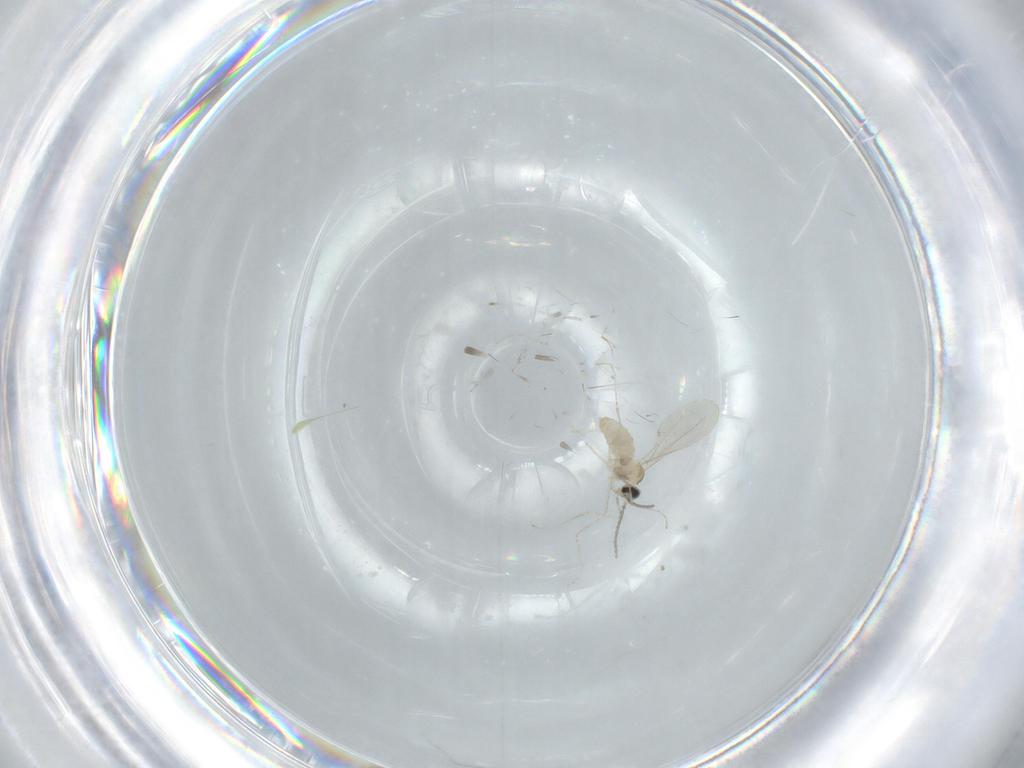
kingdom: Animalia
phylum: Arthropoda
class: Insecta
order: Diptera
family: Cecidomyiidae
